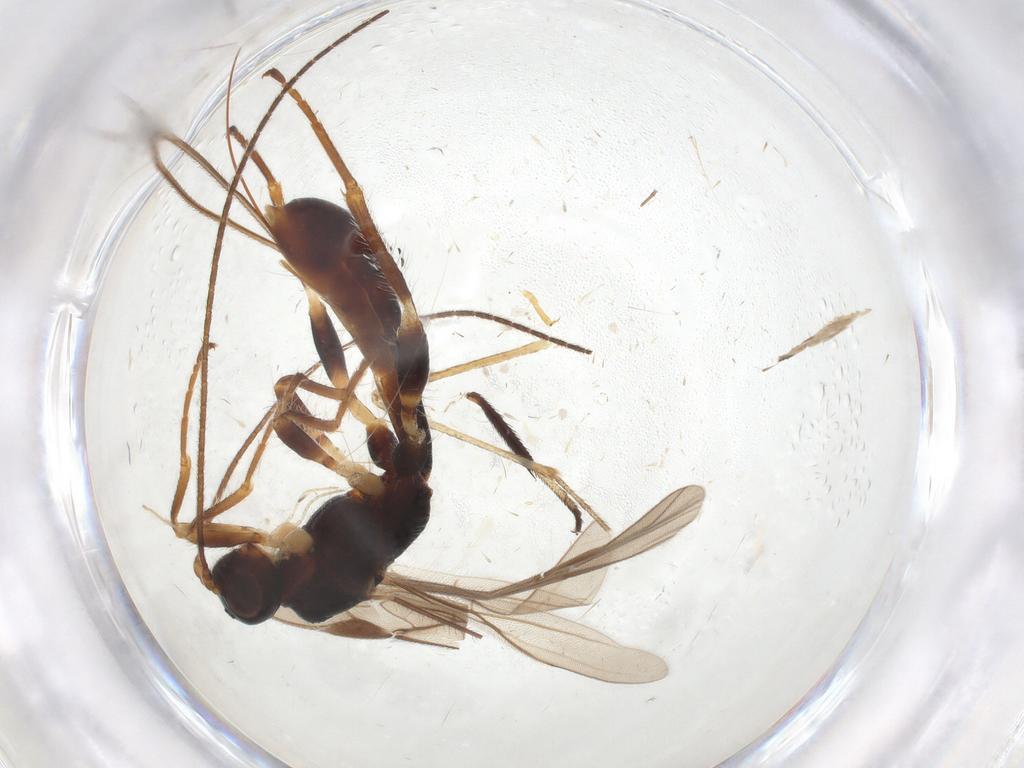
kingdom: Animalia
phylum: Arthropoda
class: Insecta
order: Hymenoptera
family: Braconidae
